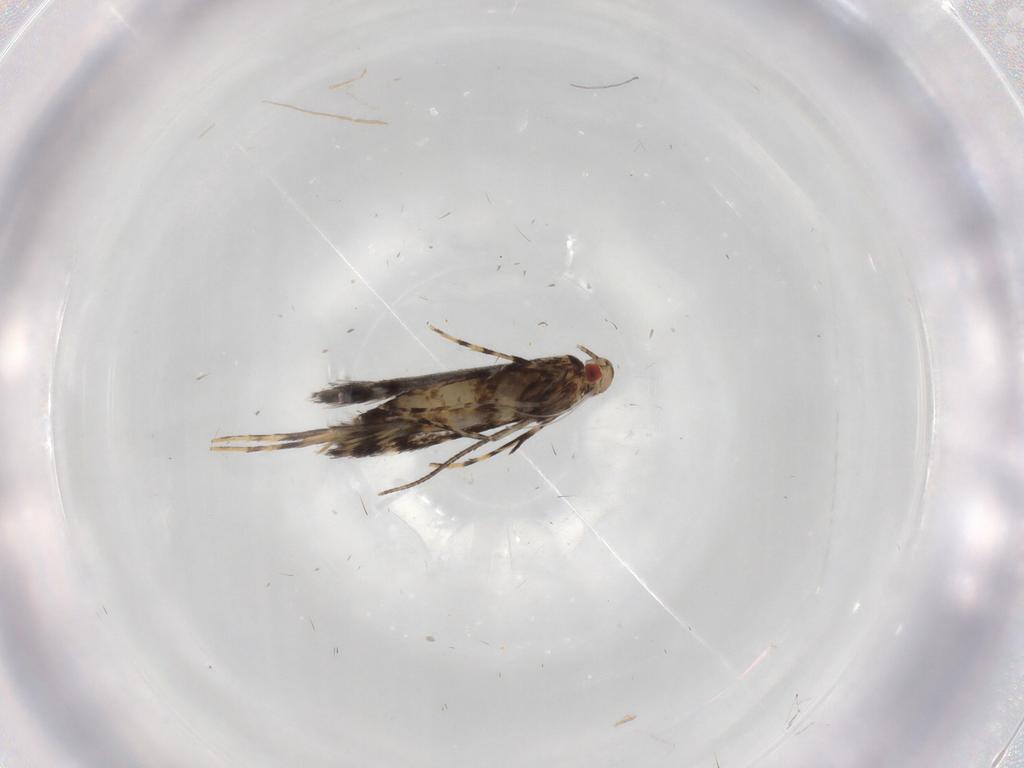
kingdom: Animalia
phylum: Arthropoda
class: Insecta
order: Lepidoptera
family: Gracillariidae
